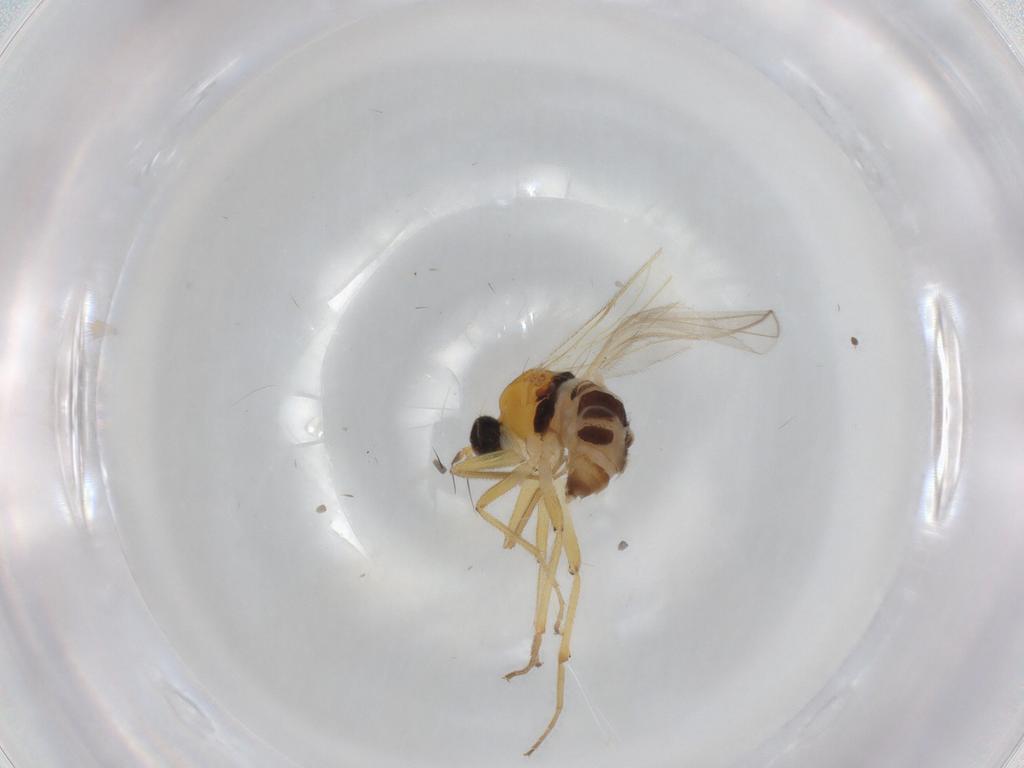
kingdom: Animalia
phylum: Arthropoda
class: Insecta
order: Diptera
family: Hybotidae
